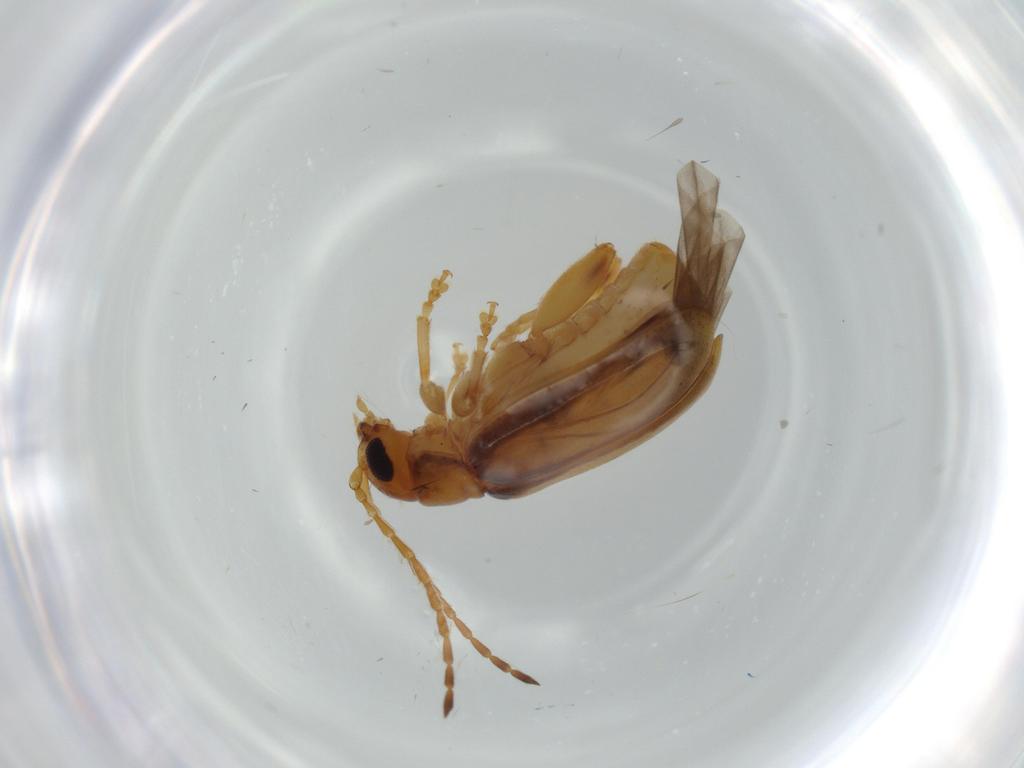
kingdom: Animalia
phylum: Arthropoda
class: Insecta
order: Coleoptera
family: Chrysomelidae
